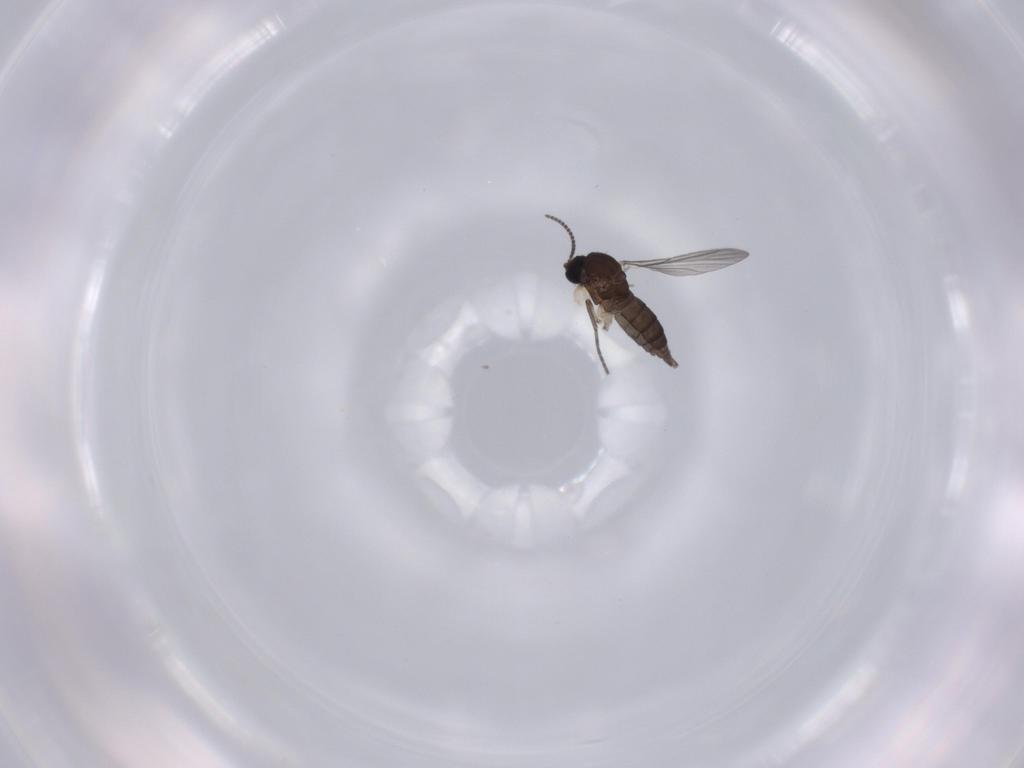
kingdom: Animalia
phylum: Arthropoda
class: Insecta
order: Diptera
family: Sciaridae
